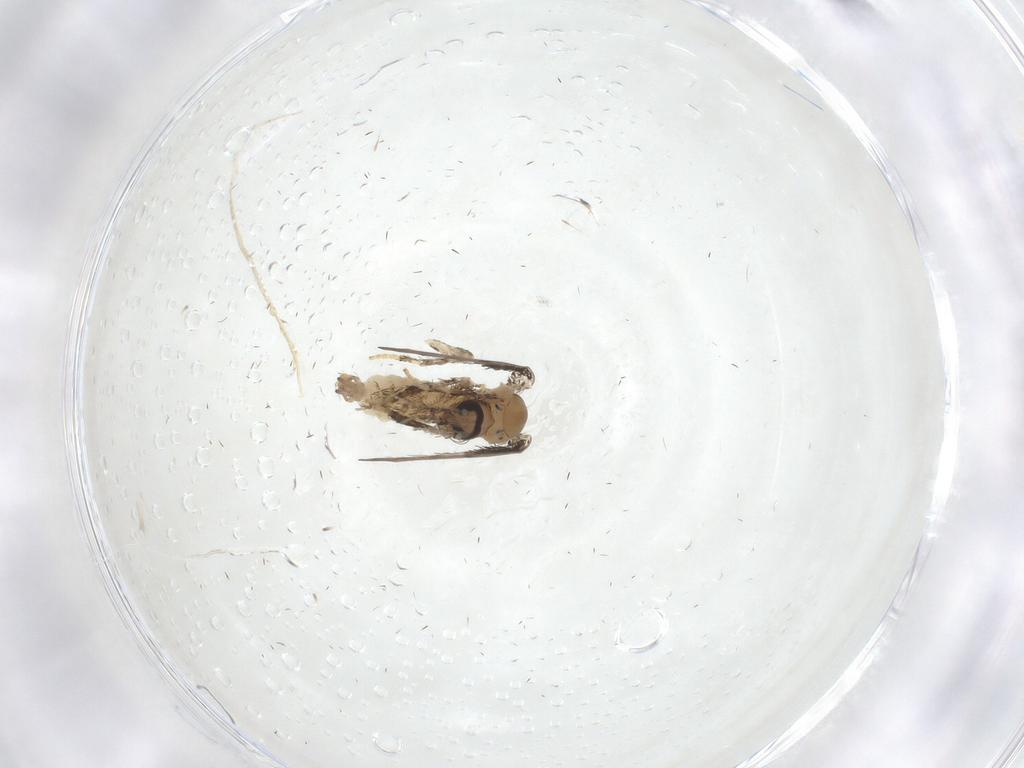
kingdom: Animalia
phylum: Arthropoda
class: Insecta
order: Diptera
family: Psychodidae
